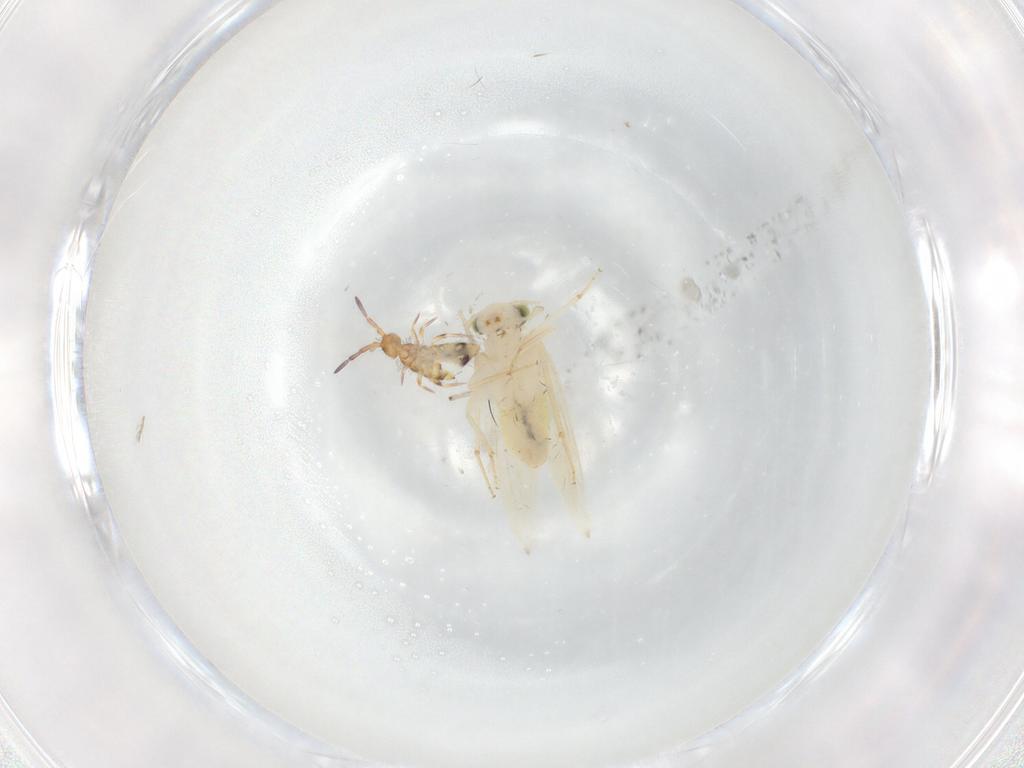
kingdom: Animalia
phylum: Arthropoda
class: Collembola
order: Entomobryomorpha
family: Entomobryidae
